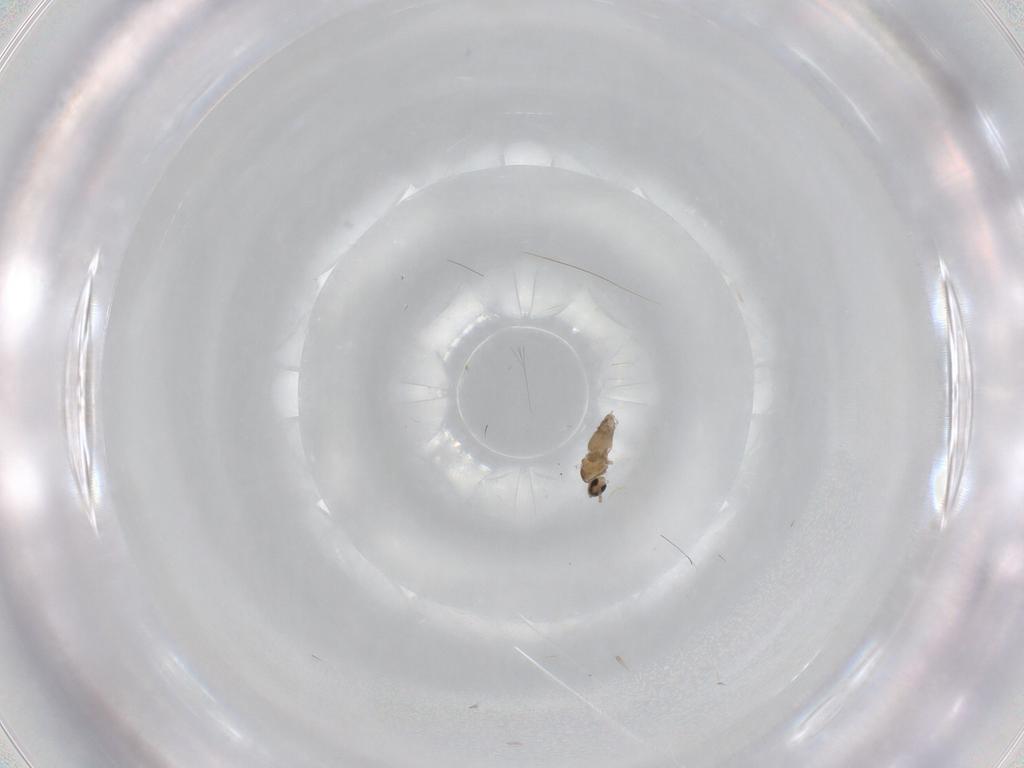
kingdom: Animalia
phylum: Arthropoda
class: Insecta
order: Diptera
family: Cecidomyiidae
